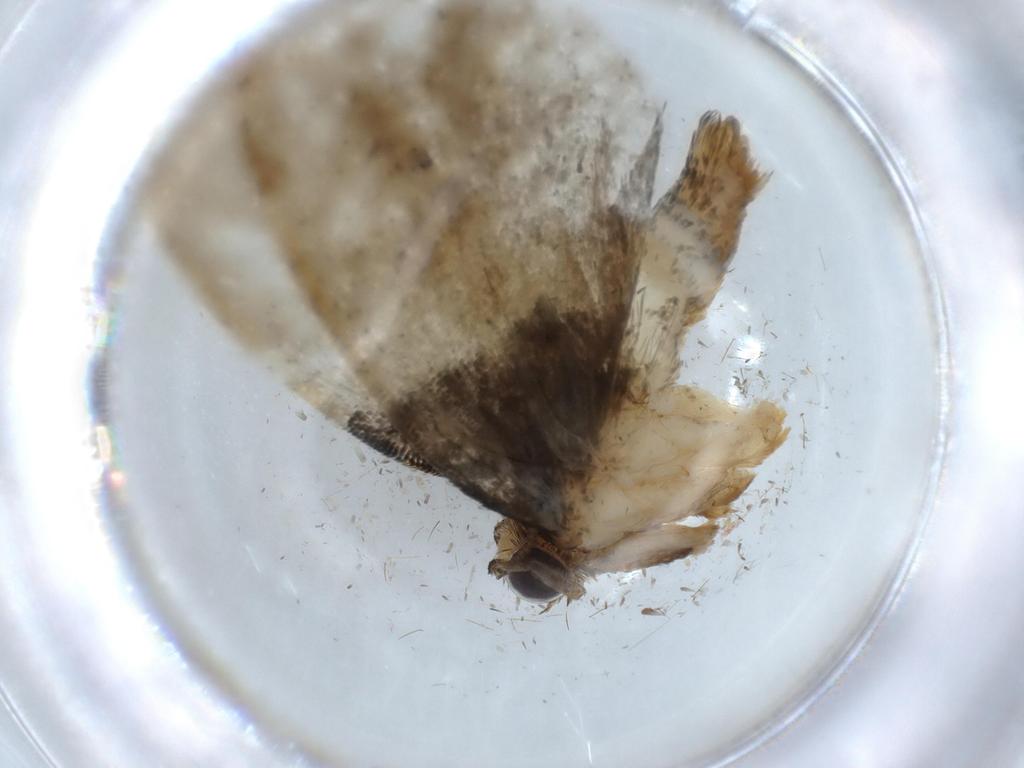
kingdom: Animalia
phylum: Arthropoda
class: Insecta
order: Lepidoptera
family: Psychidae
